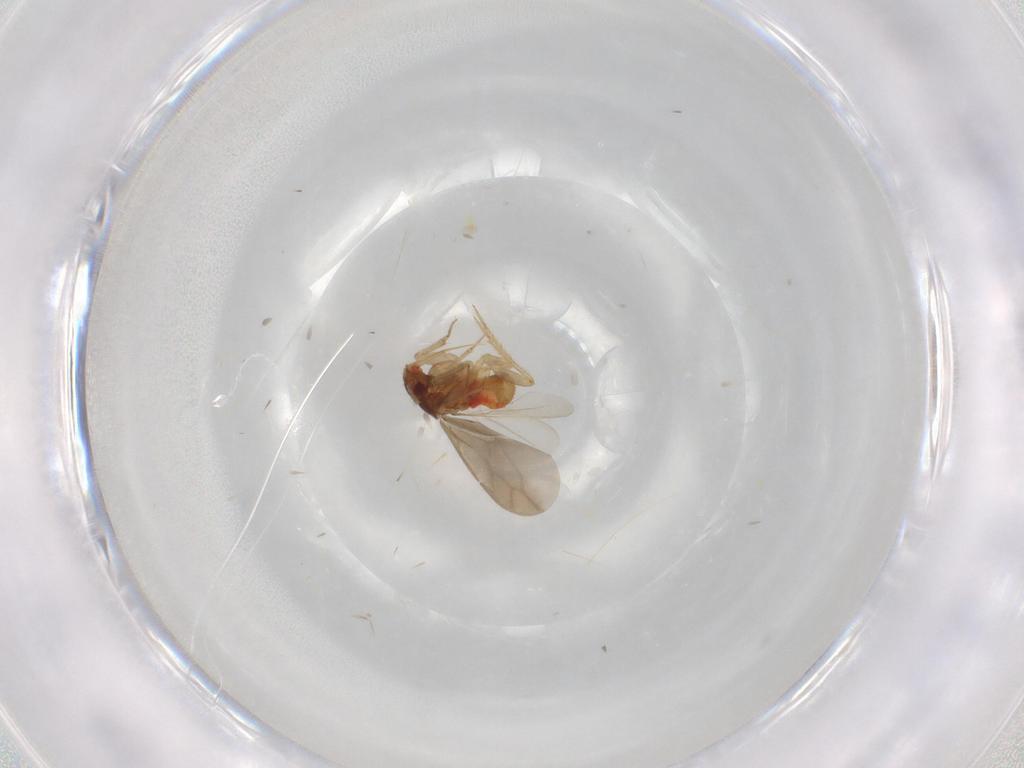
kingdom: Animalia
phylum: Arthropoda
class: Insecta
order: Hemiptera
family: Ceratocombidae
